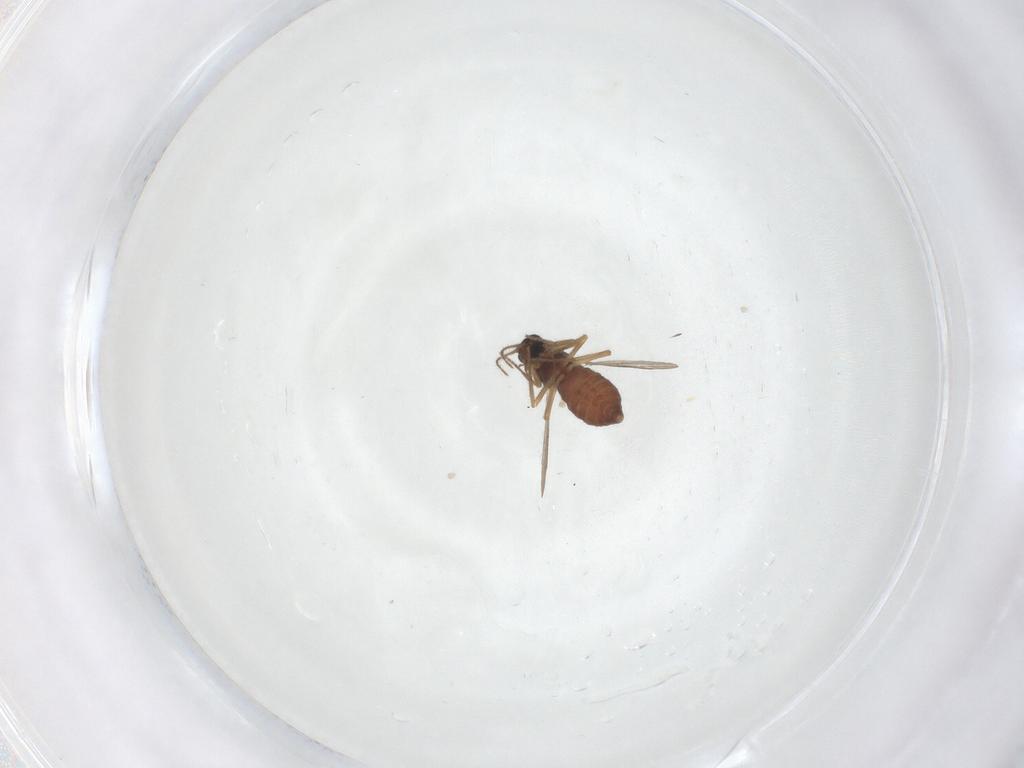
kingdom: Animalia
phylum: Arthropoda
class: Insecta
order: Diptera
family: Ceratopogonidae
